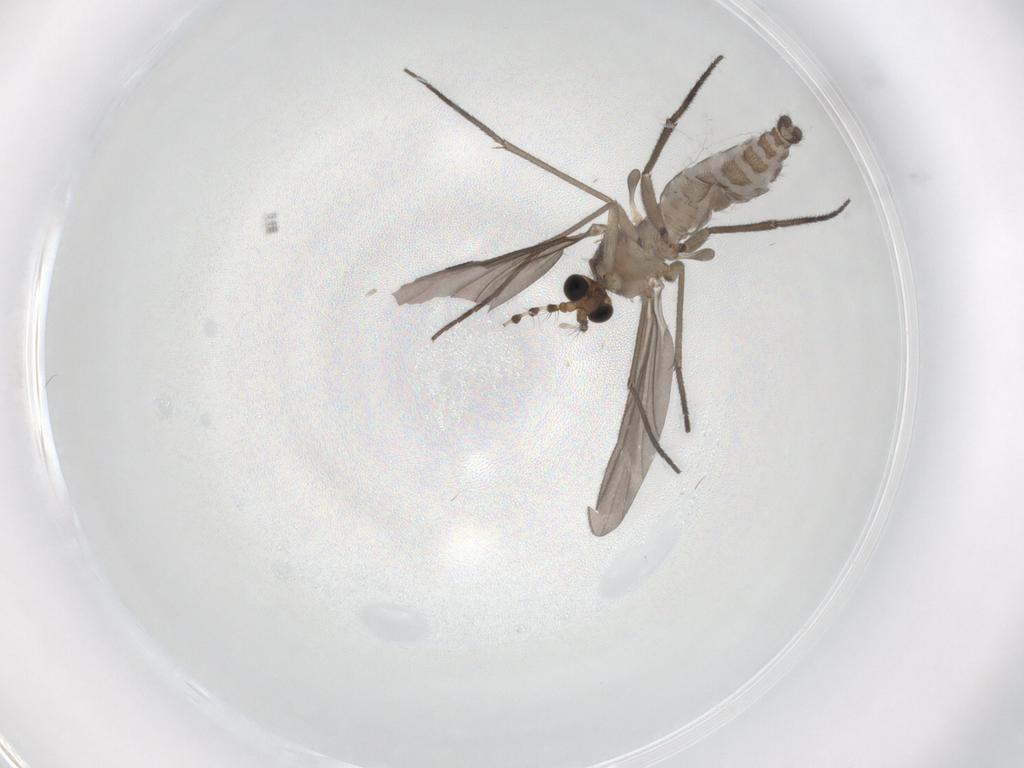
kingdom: Animalia
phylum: Arthropoda
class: Insecta
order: Diptera
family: Sciaridae
